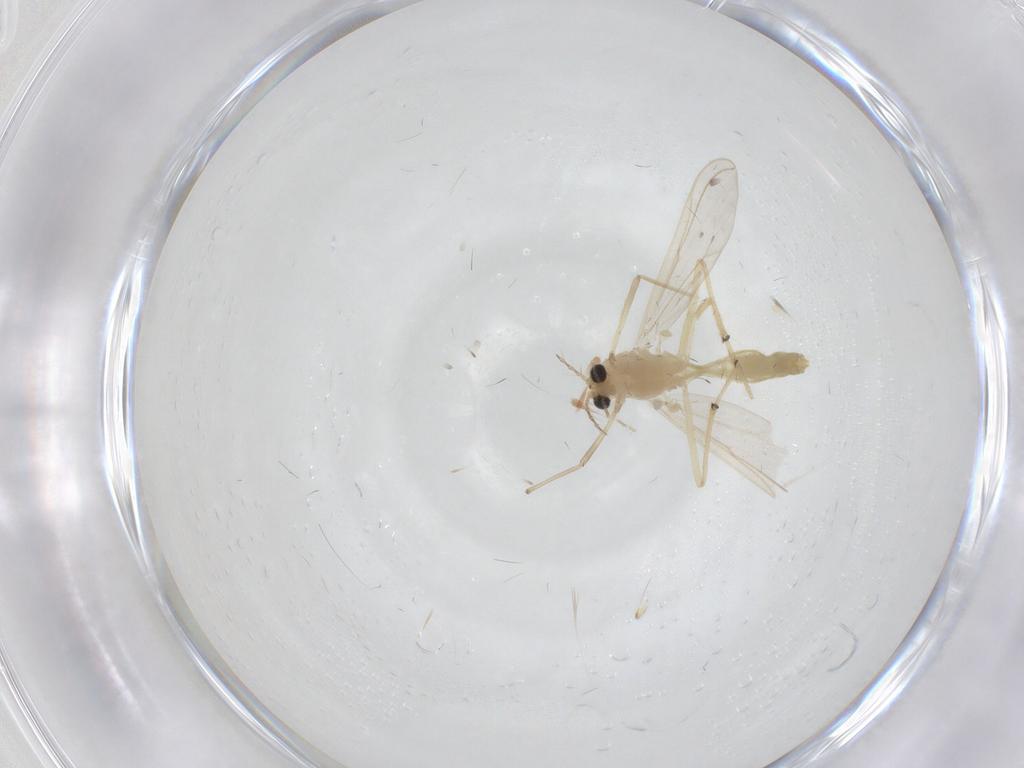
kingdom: Animalia
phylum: Arthropoda
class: Insecta
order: Diptera
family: Chironomidae
